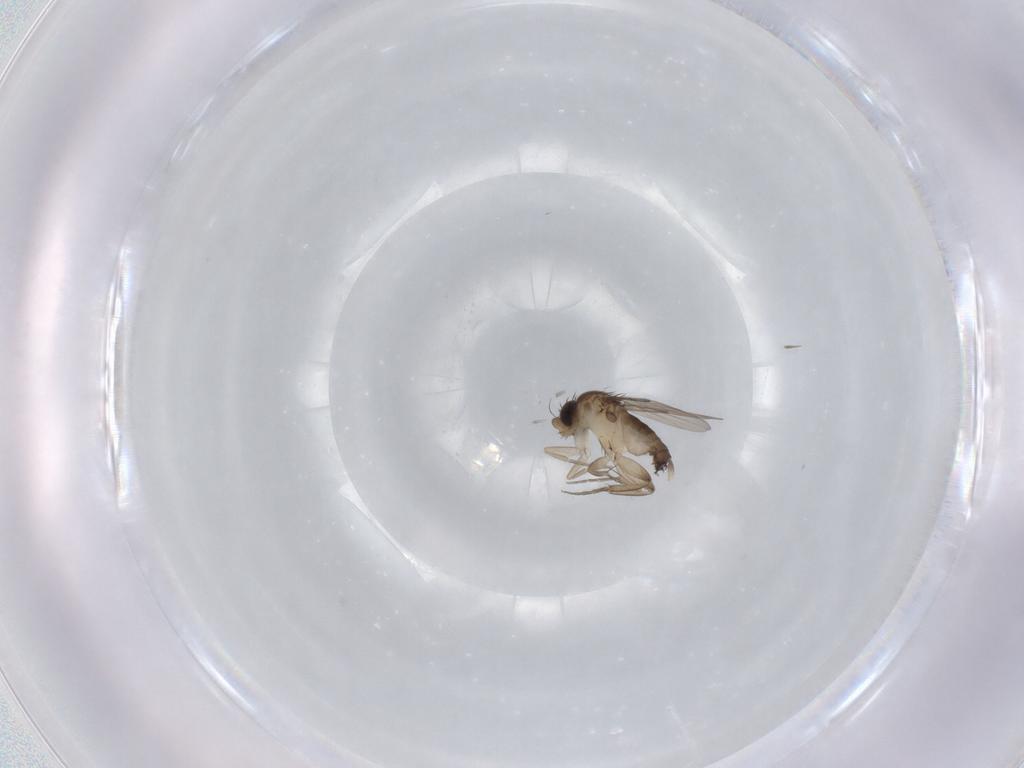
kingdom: Animalia
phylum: Arthropoda
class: Insecta
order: Diptera
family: Phoridae
